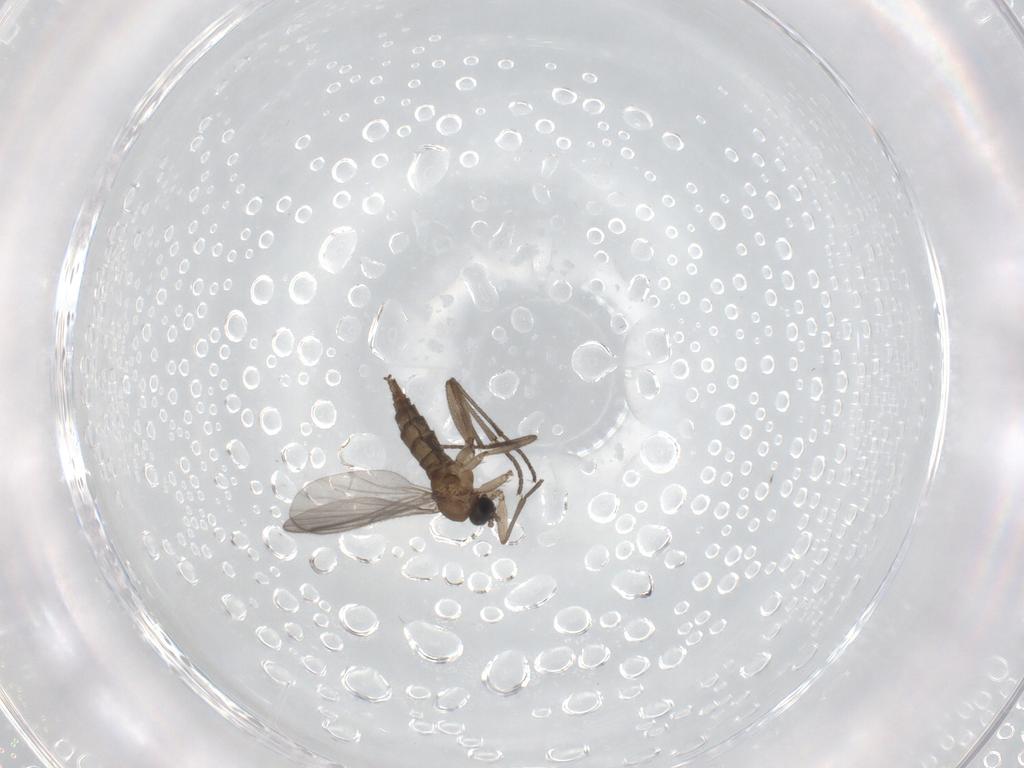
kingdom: Animalia
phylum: Arthropoda
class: Insecta
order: Diptera
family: Sciaridae
